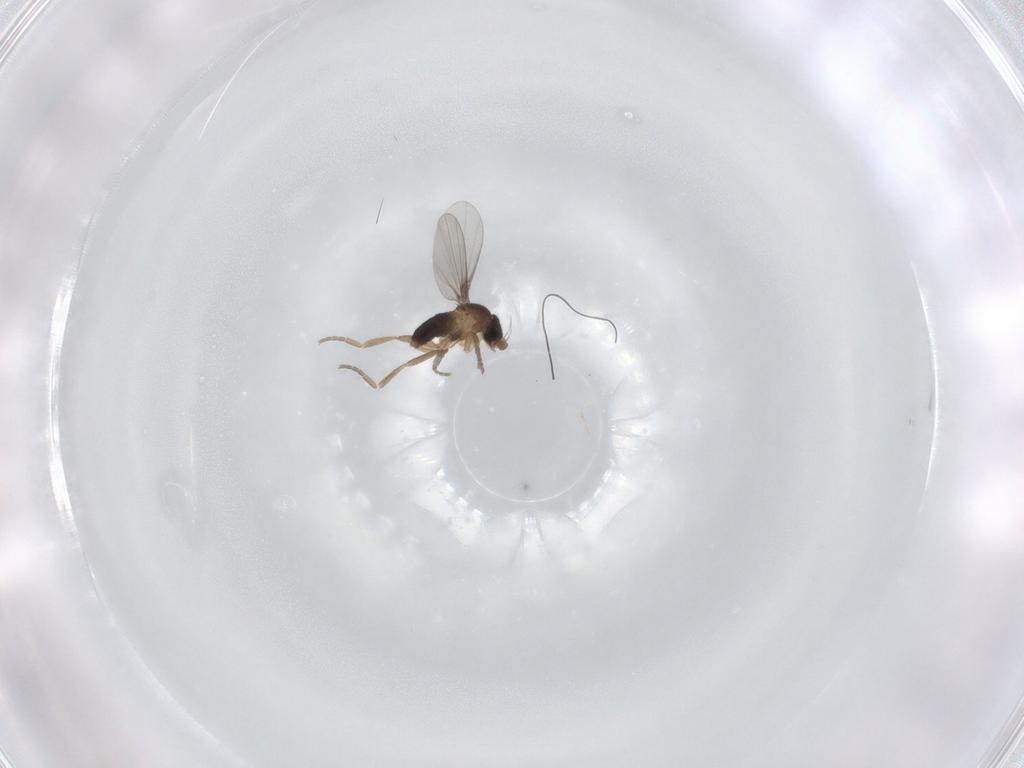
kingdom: Animalia
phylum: Arthropoda
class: Insecta
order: Diptera
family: Phoridae
